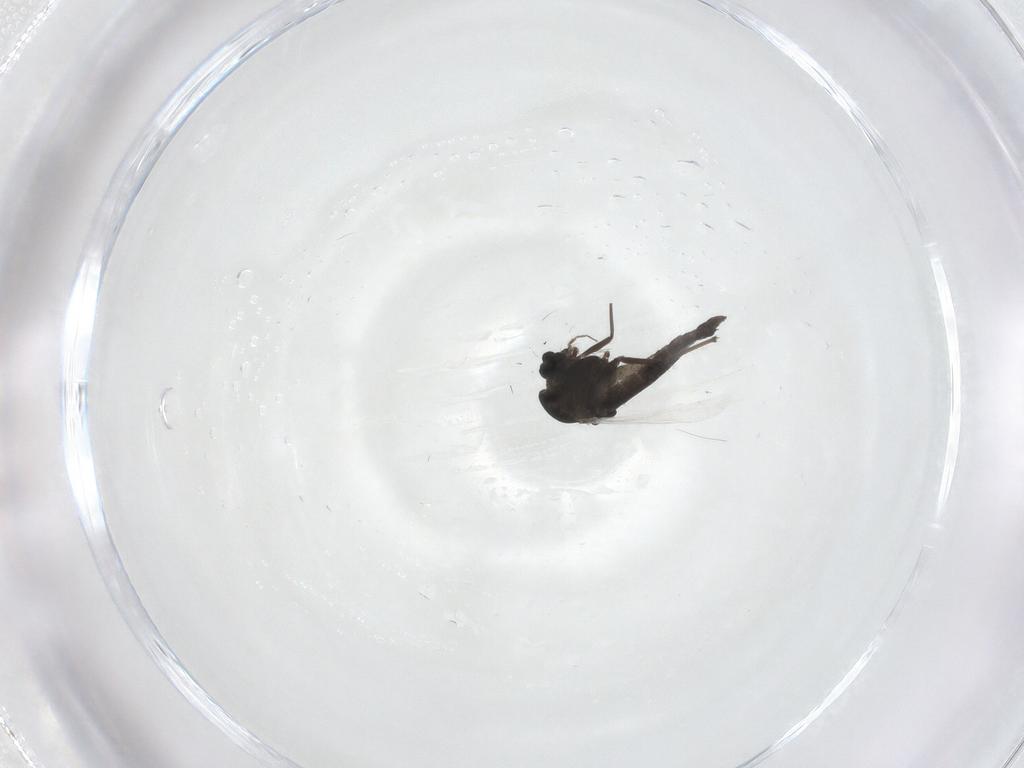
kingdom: Animalia
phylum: Arthropoda
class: Insecta
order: Diptera
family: Chironomidae
